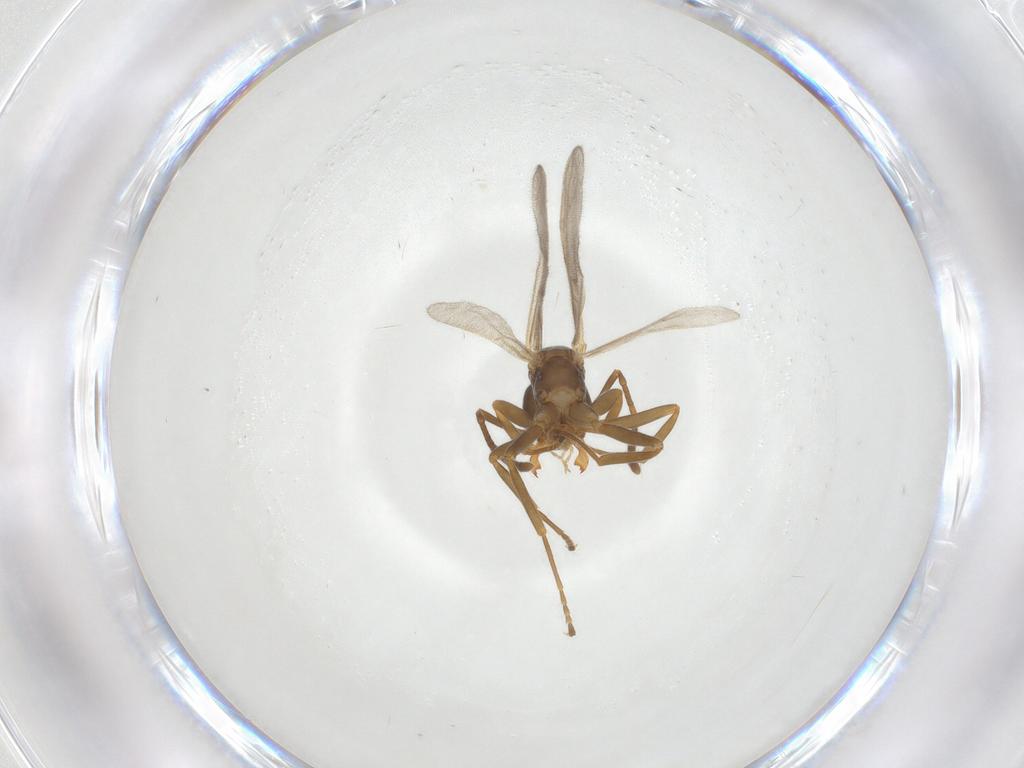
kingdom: Animalia
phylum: Arthropoda
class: Insecta
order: Hymenoptera
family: Formicidae
